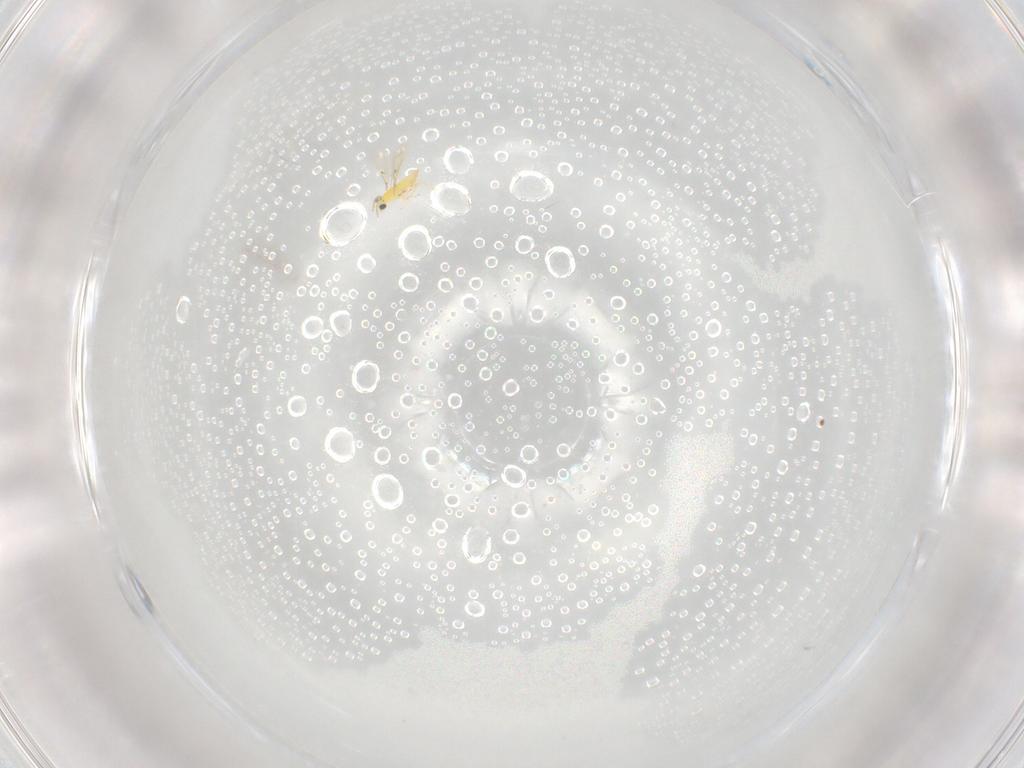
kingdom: Animalia
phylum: Arthropoda
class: Insecta
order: Hymenoptera
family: Trichogrammatidae
